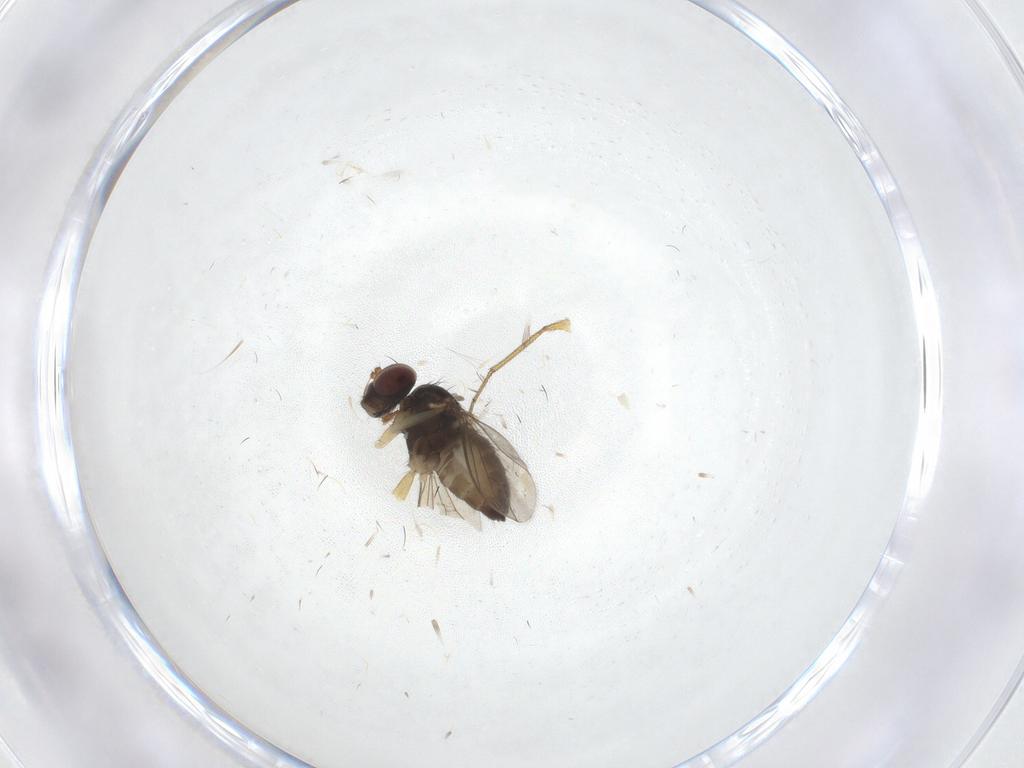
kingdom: Animalia
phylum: Arthropoda
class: Insecta
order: Diptera
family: Dolichopodidae
